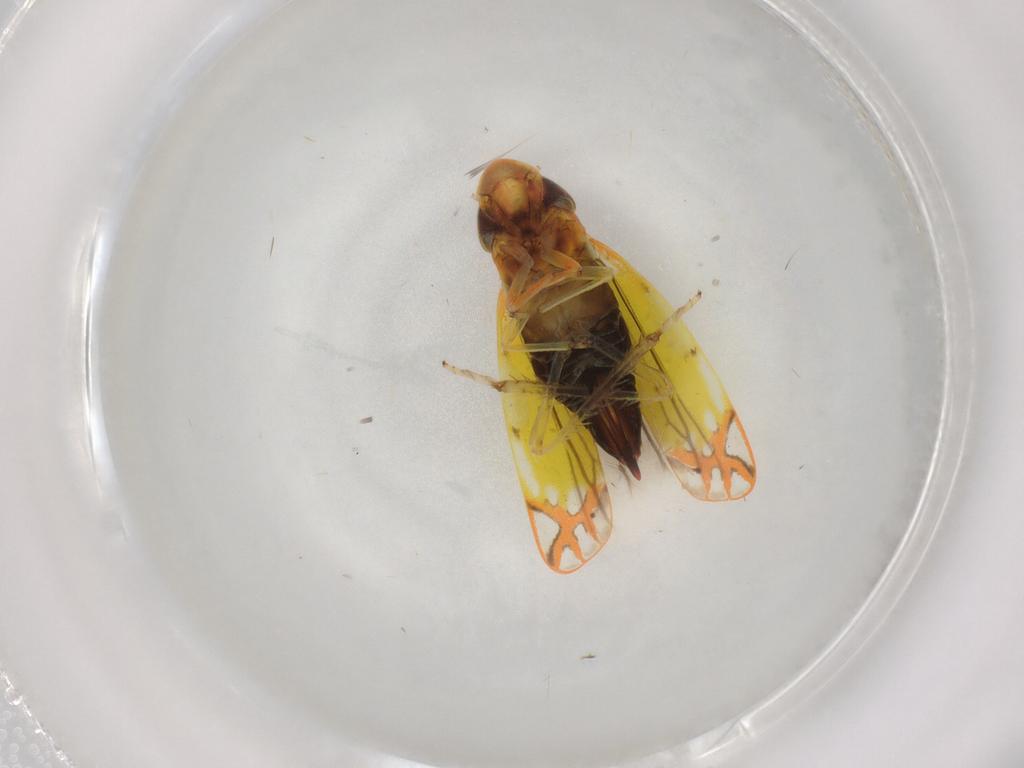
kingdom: Animalia
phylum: Arthropoda
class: Insecta
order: Hemiptera
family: Cicadellidae
